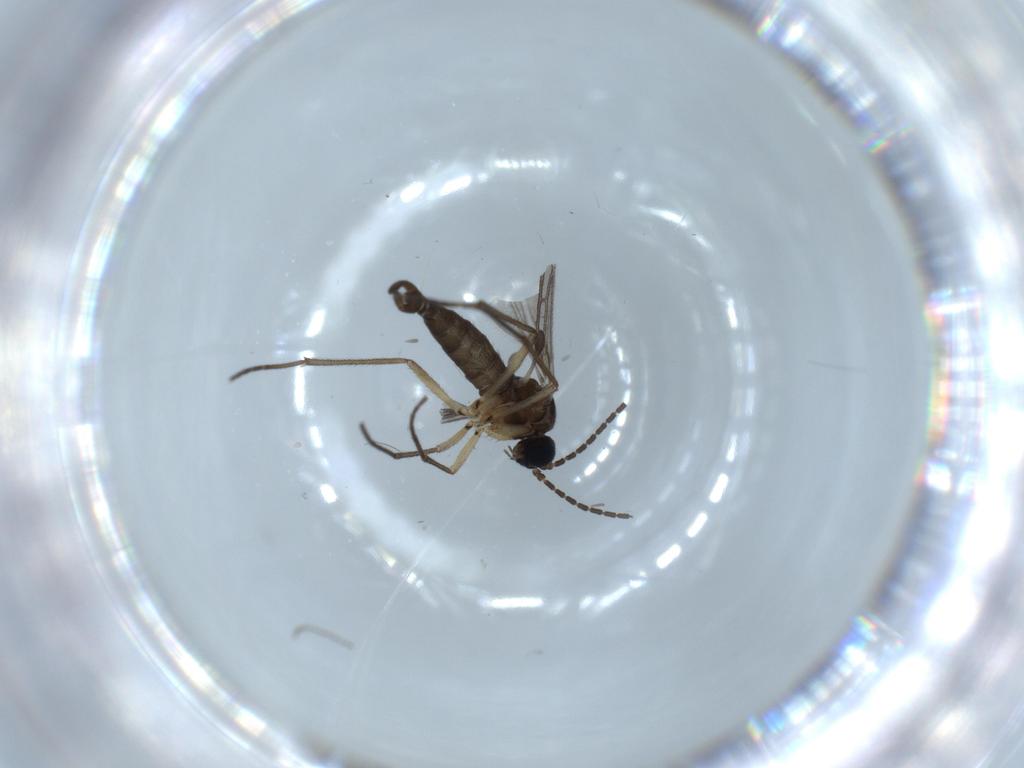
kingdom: Animalia
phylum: Arthropoda
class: Insecta
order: Diptera
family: Sciaridae
